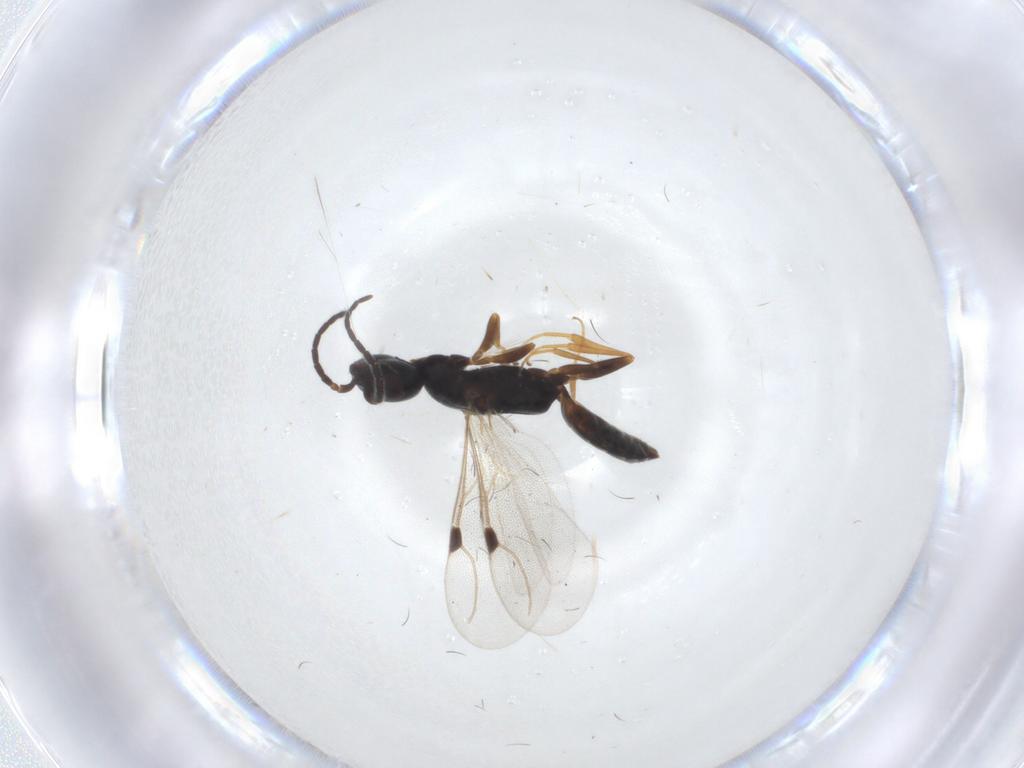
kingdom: Animalia
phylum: Arthropoda
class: Insecta
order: Hymenoptera
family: Bethylidae
